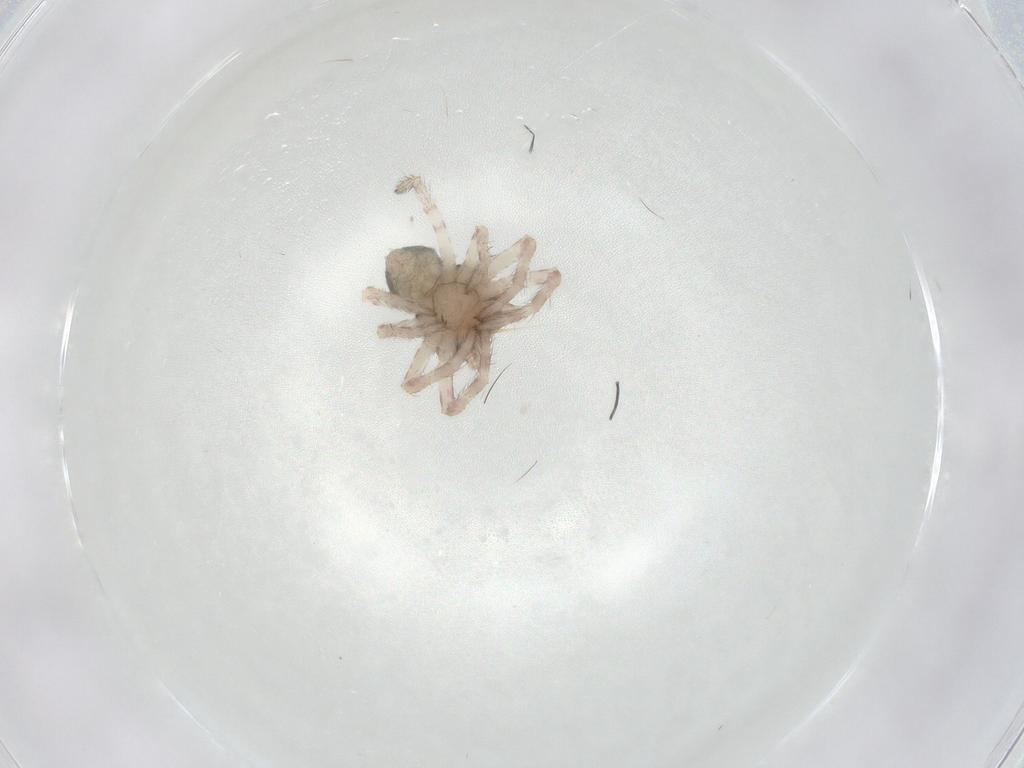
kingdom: Animalia
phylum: Arthropoda
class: Arachnida
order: Araneae
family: Thomisidae
